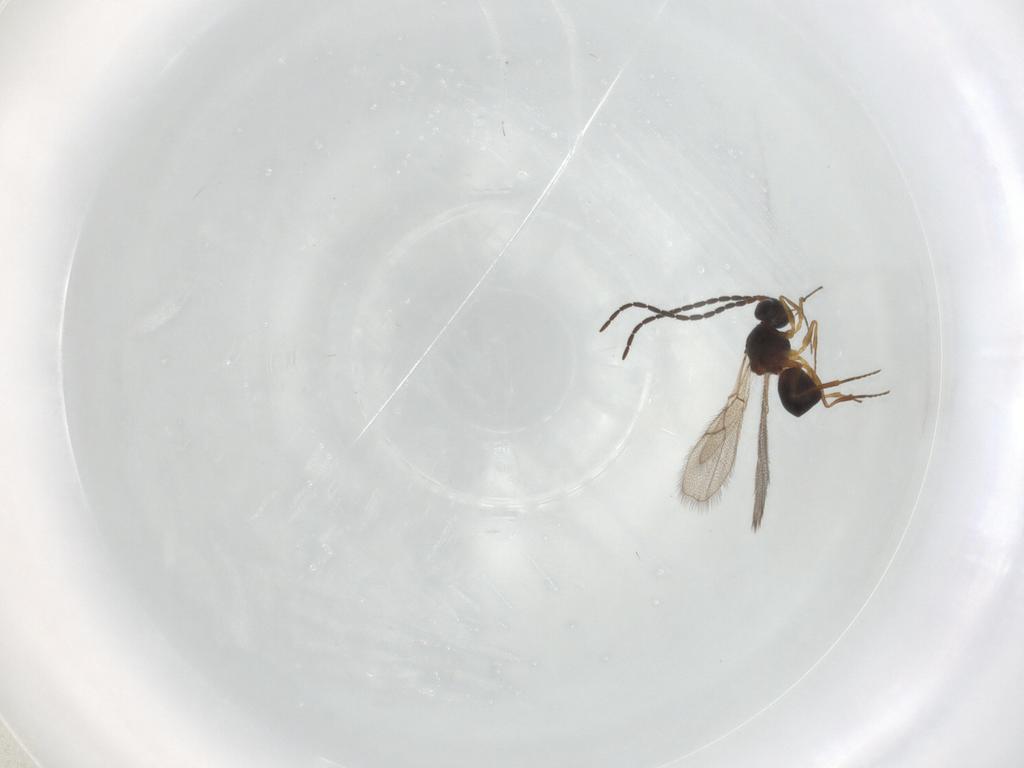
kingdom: Animalia
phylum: Arthropoda
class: Insecta
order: Hymenoptera
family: Figitidae
